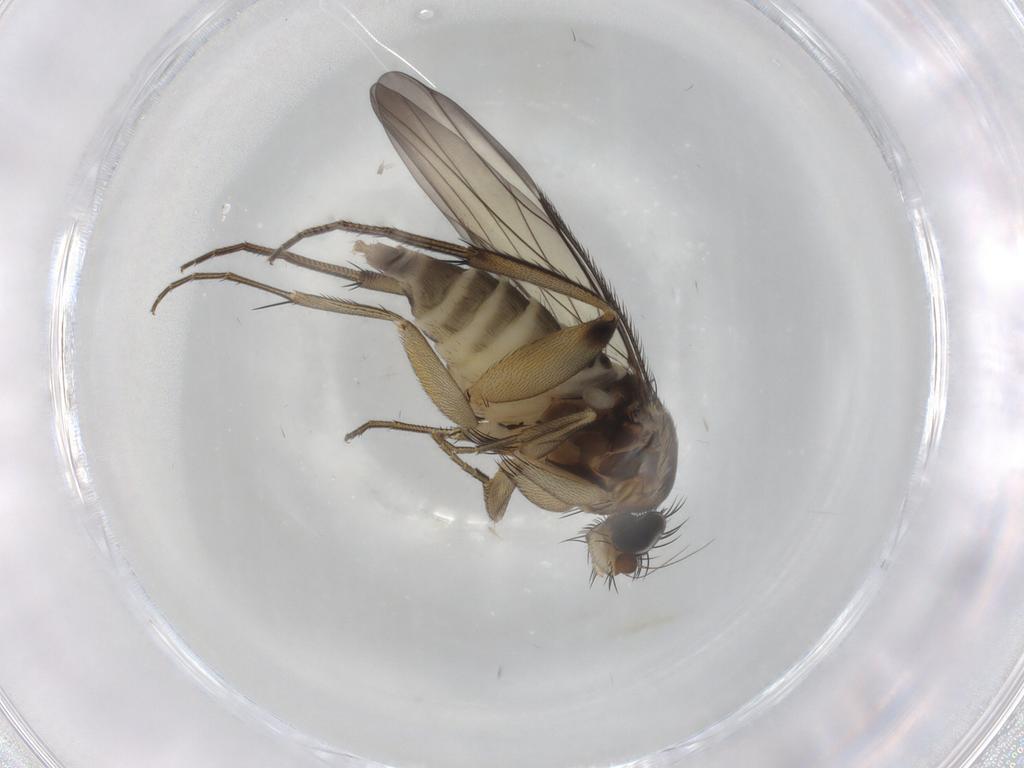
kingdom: Animalia
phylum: Arthropoda
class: Insecta
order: Diptera
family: Phoridae
